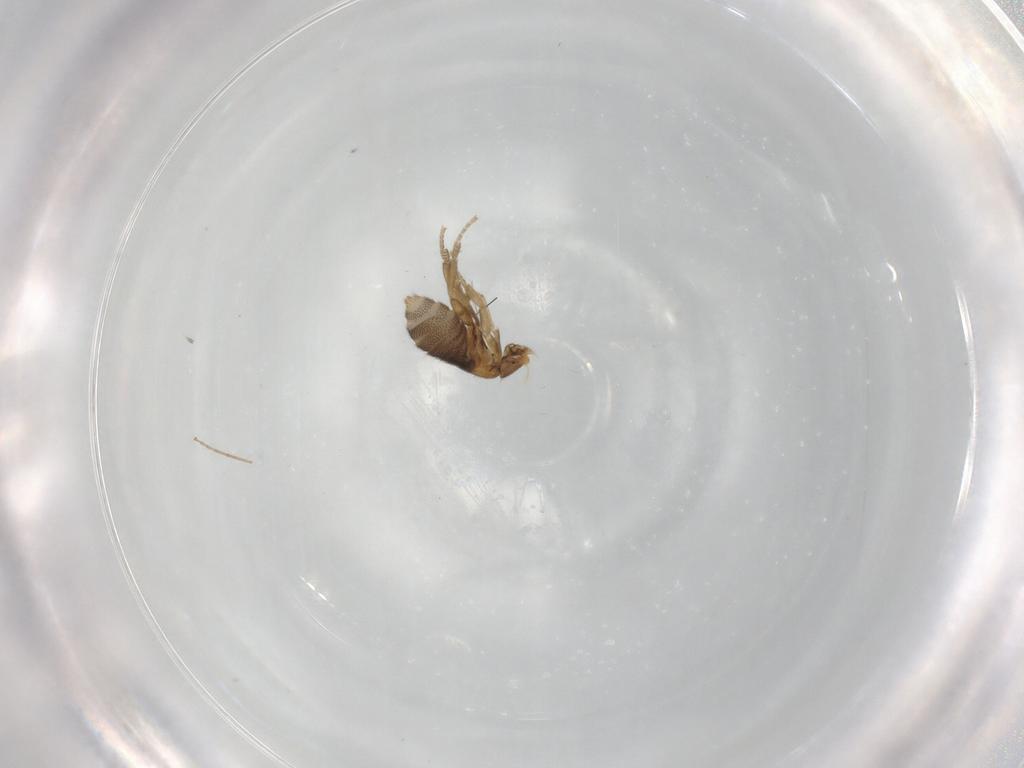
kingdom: Animalia
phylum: Arthropoda
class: Insecta
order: Diptera
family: Chironomidae
